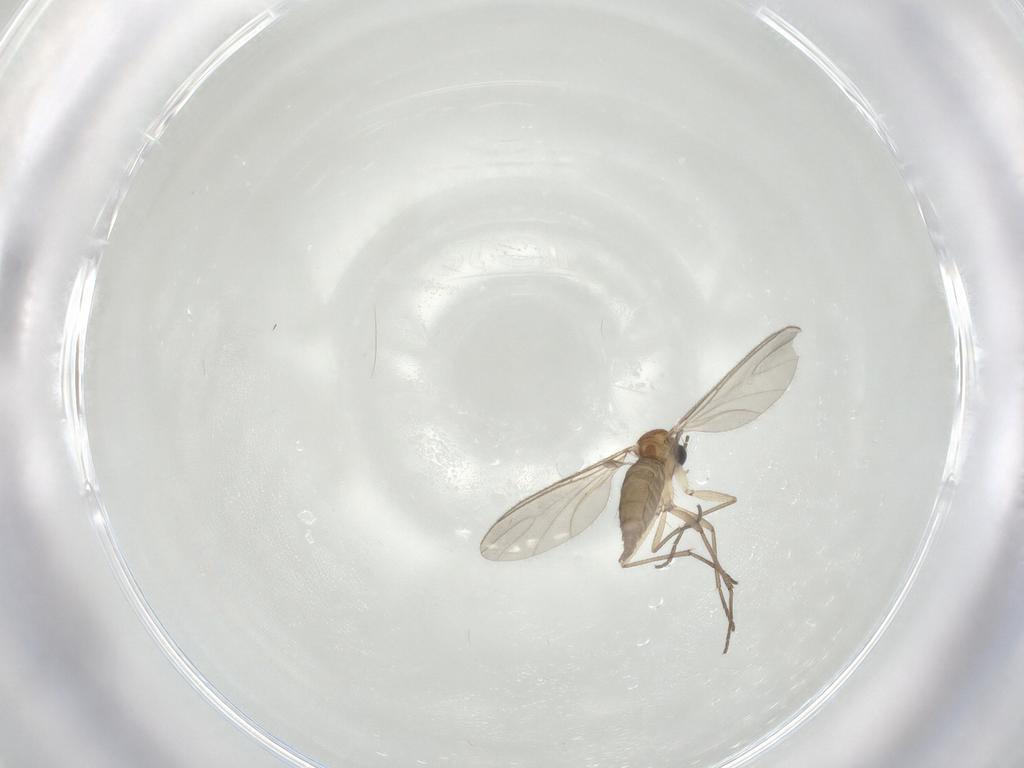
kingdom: Animalia
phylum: Arthropoda
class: Insecta
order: Diptera
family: Sciaridae
